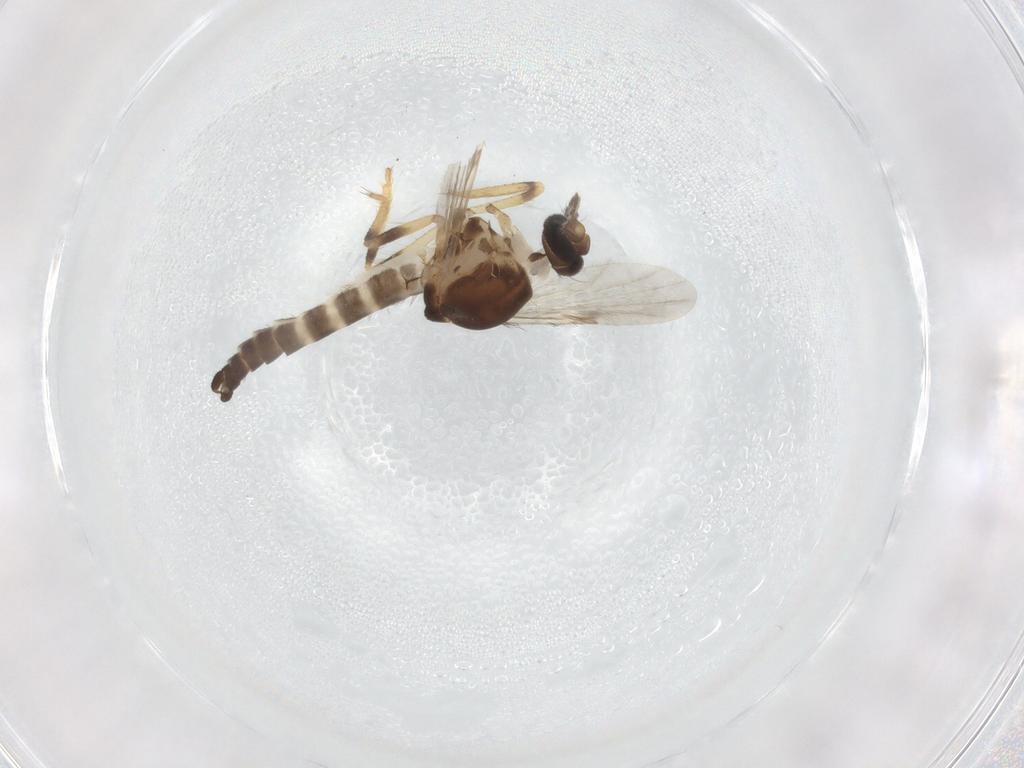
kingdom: Animalia
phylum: Arthropoda
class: Insecta
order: Diptera
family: Ceratopogonidae
